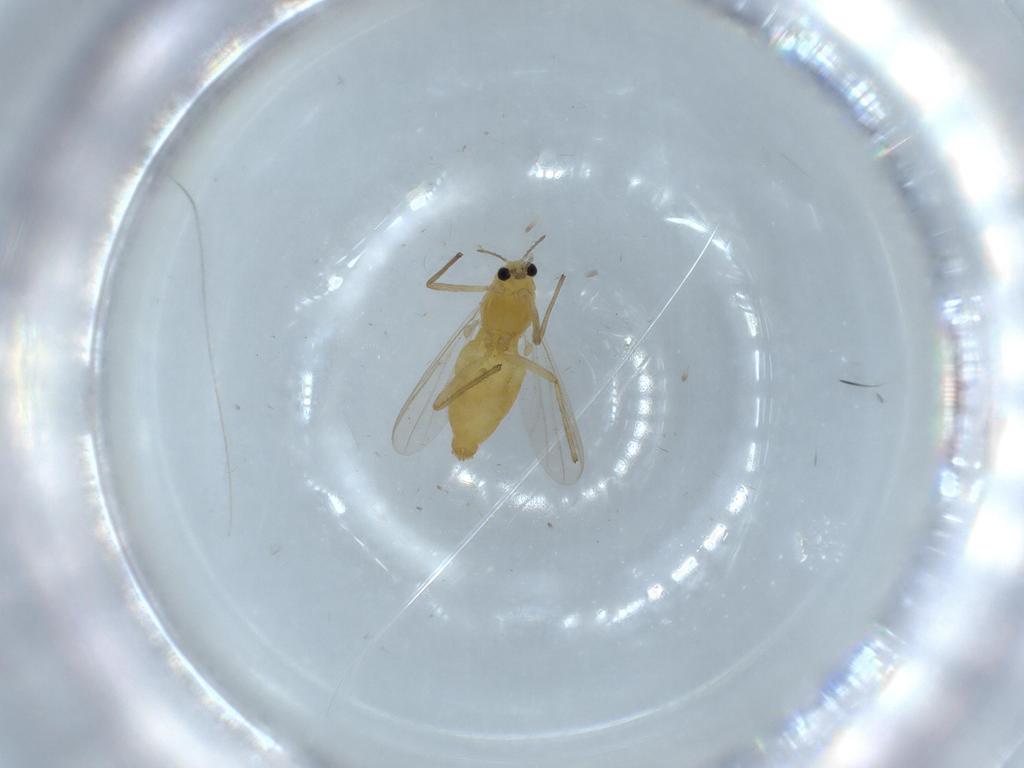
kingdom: Animalia
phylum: Arthropoda
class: Insecta
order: Diptera
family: Chironomidae
